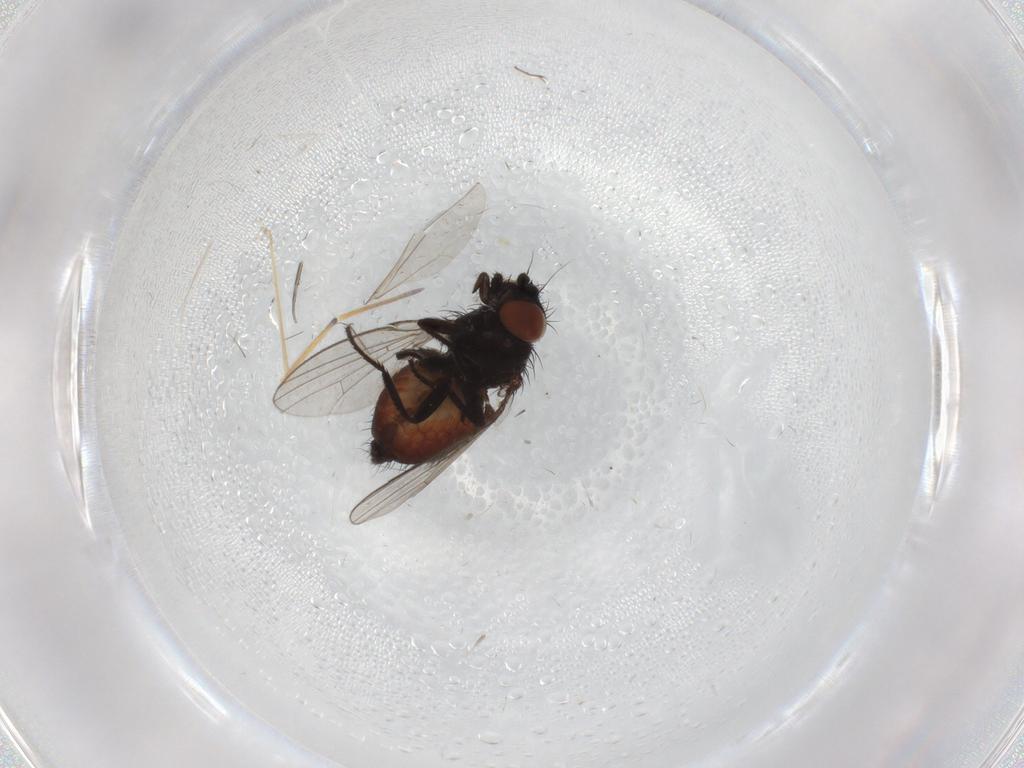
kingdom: Animalia
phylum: Arthropoda
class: Insecta
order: Diptera
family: Milichiidae
